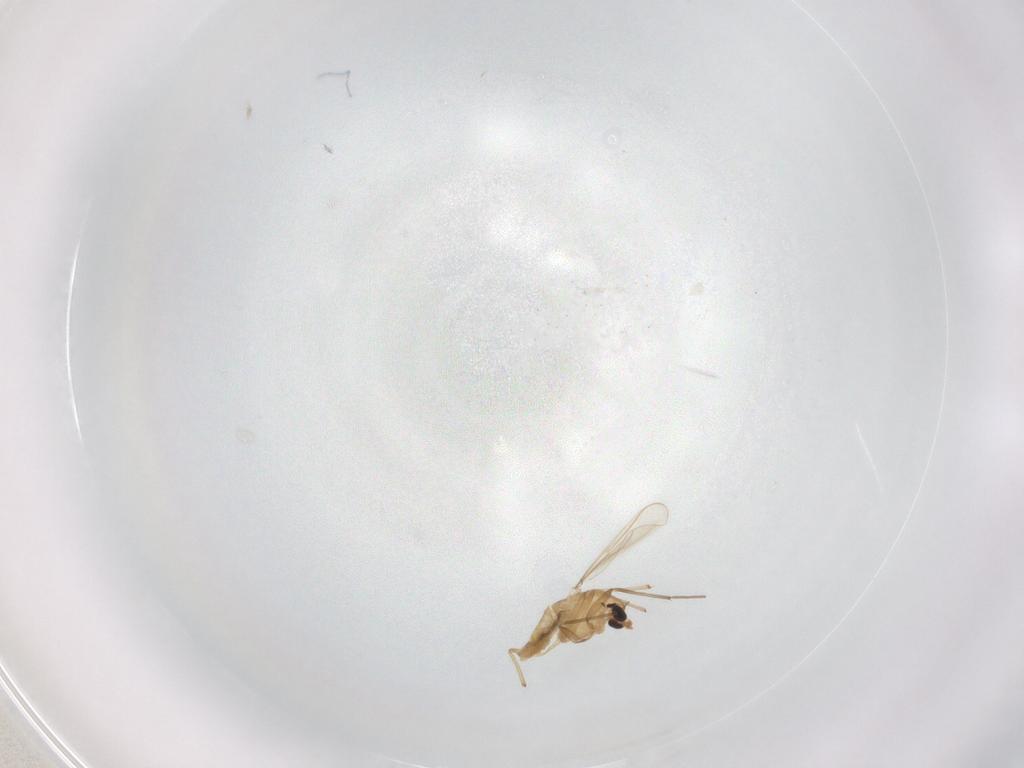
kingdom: Animalia
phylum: Arthropoda
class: Insecta
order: Diptera
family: Chironomidae
